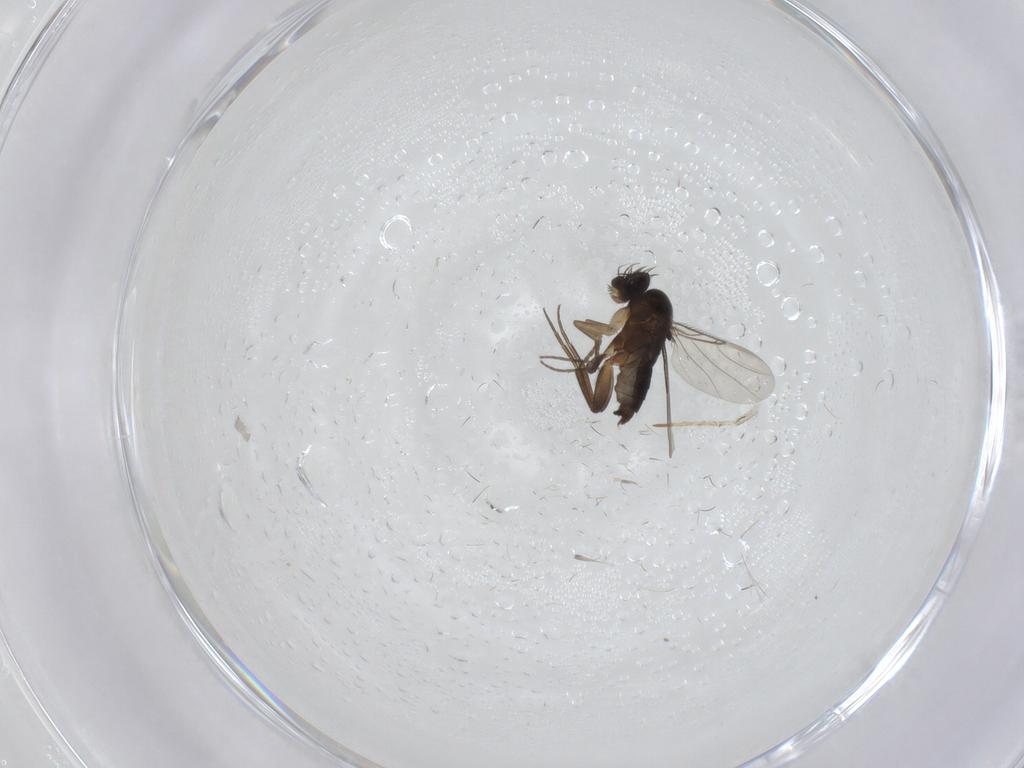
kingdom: Animalia
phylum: Arthropoda
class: Insecta
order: Diptera
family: Phoridae
